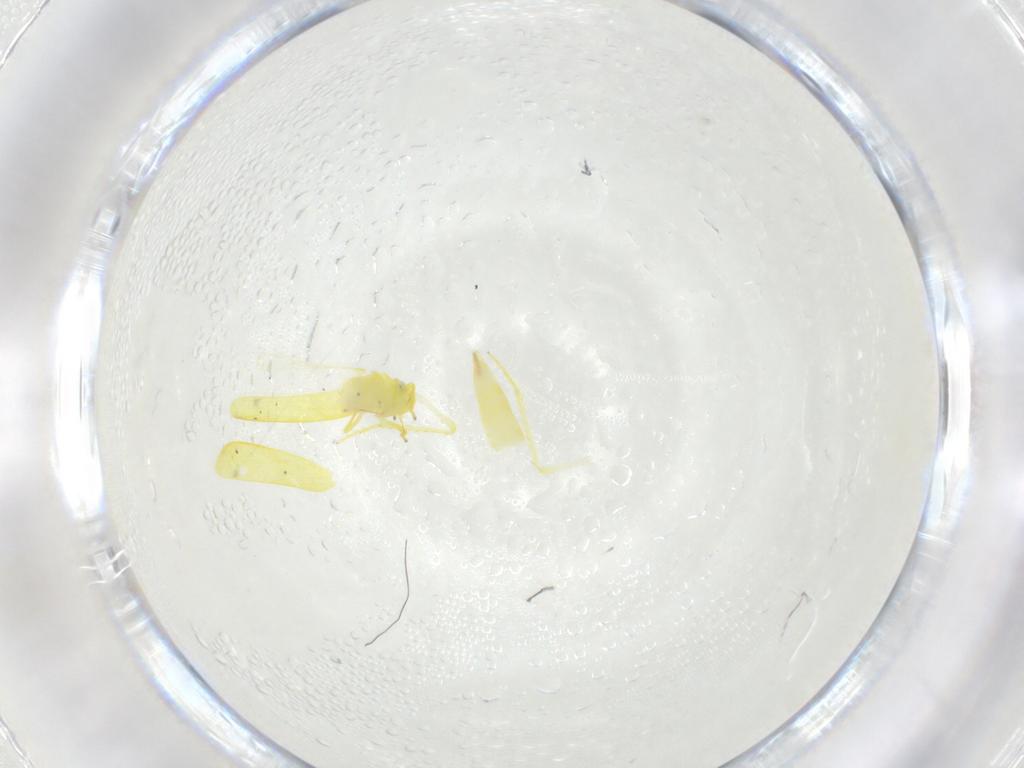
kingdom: Animalia
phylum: Arthropoda
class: Insecta
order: Hemiptera
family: Cicadellidae
